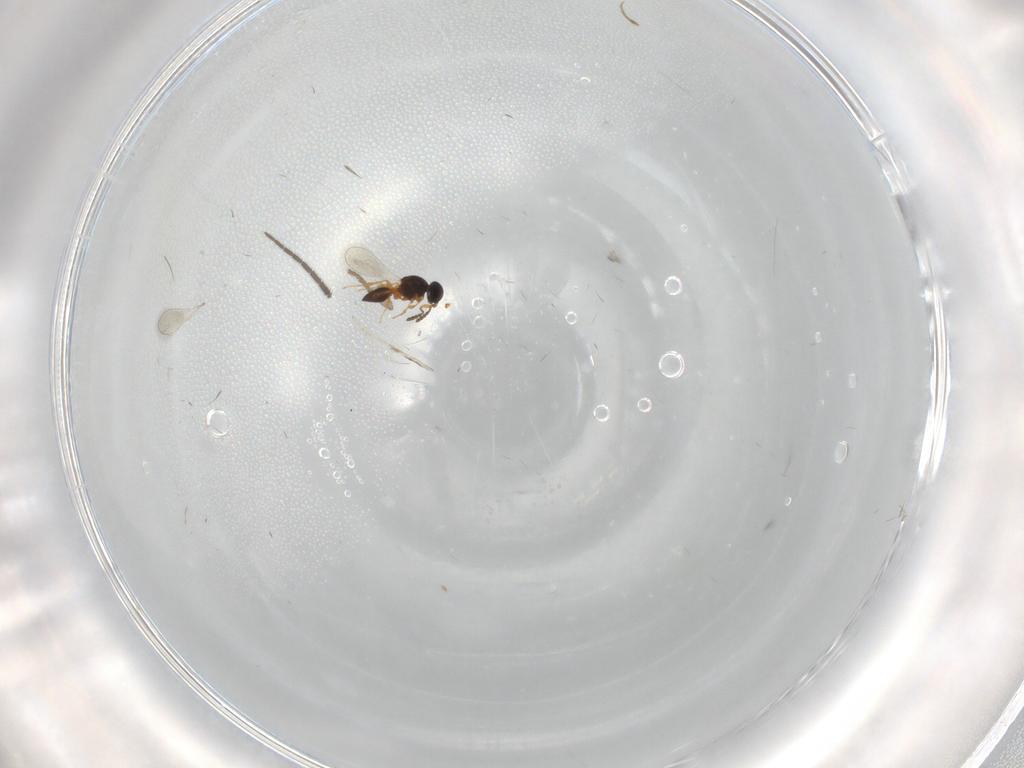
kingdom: Animalia
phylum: Arthropoda
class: Insecta
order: Hymenoptera
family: Platygastridae
